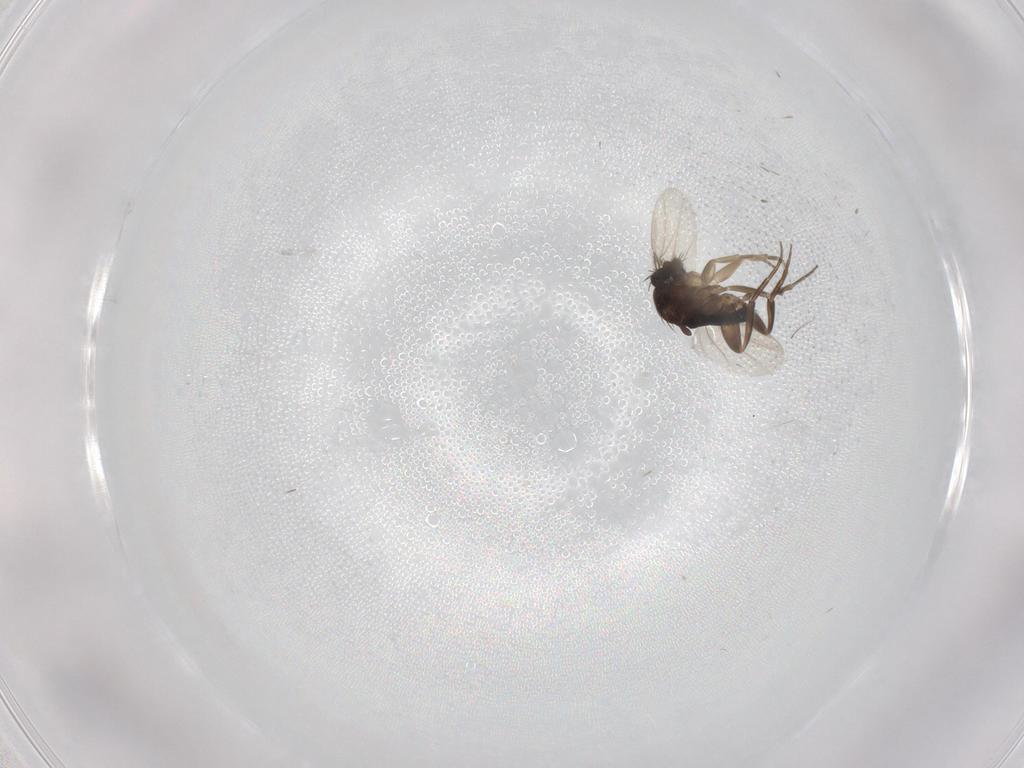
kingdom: Animalia
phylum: Arthropoda
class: Insecta
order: Diptera
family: Phoridae
